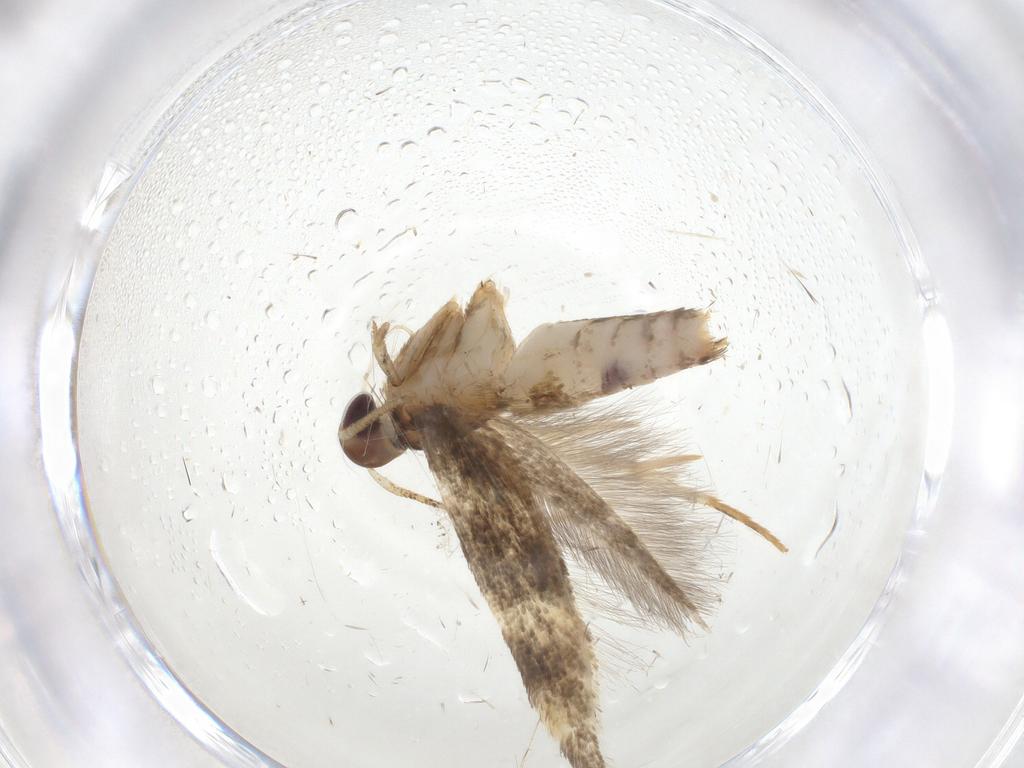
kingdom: Animalia
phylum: Arthropoda
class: Insecta
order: Lepidoptera
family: Cosmopterigidae
